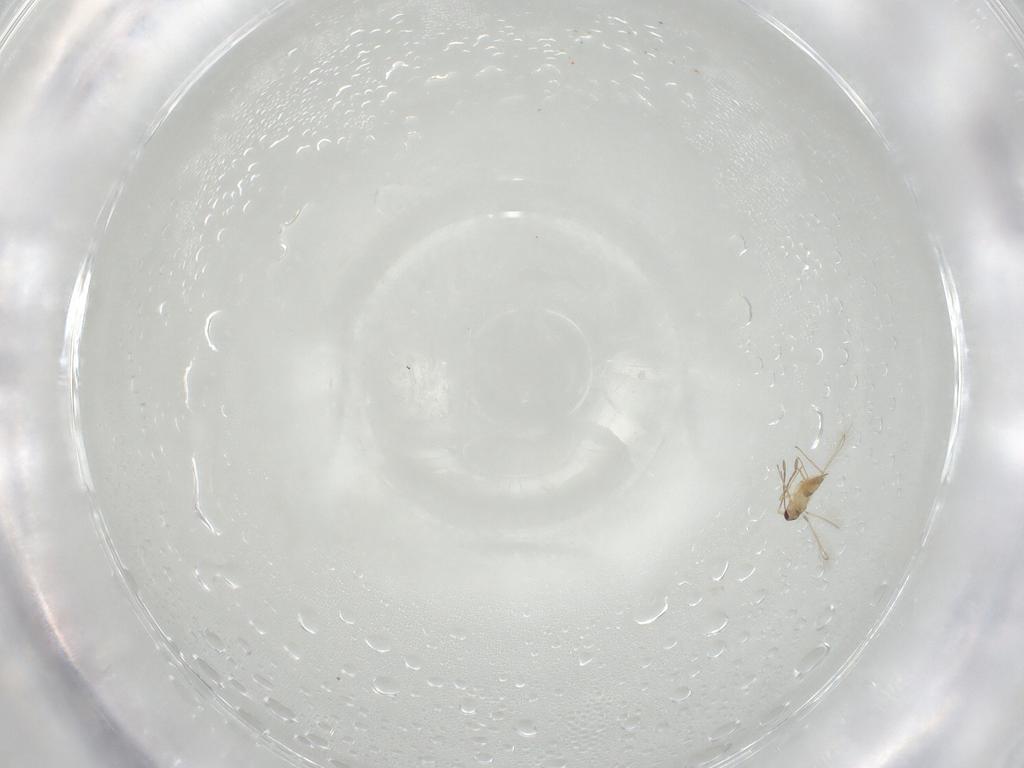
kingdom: Animalia
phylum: Arthropoda
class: Insecta
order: Hymenoptera
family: Mymaridae
